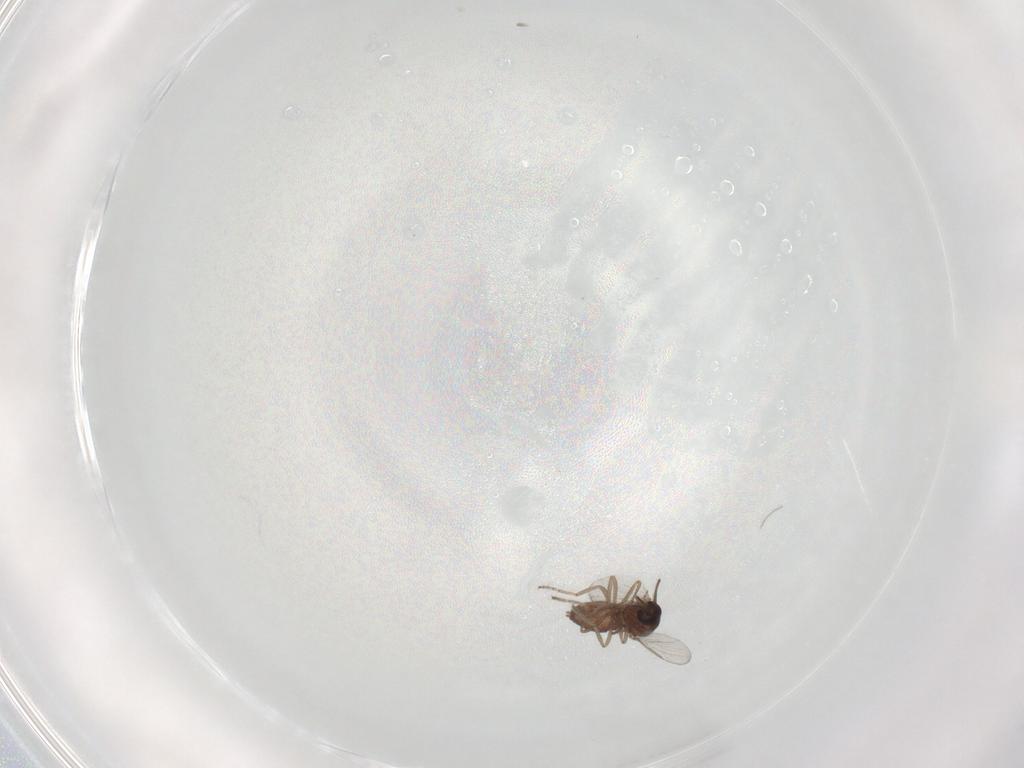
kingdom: Animalia
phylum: Arthropoda
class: Insecta
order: Diptera
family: Ceratopogonidae
